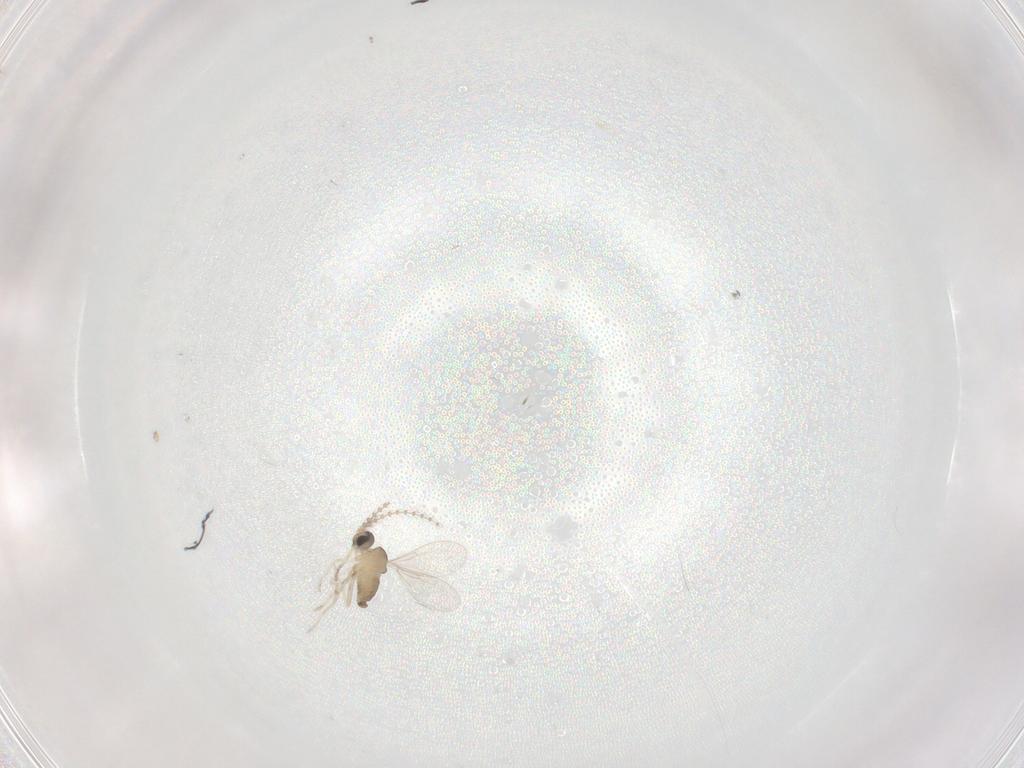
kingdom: Animalia
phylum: Arthropoda
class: Insecta
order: Diptera
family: Cecidomyiidae
